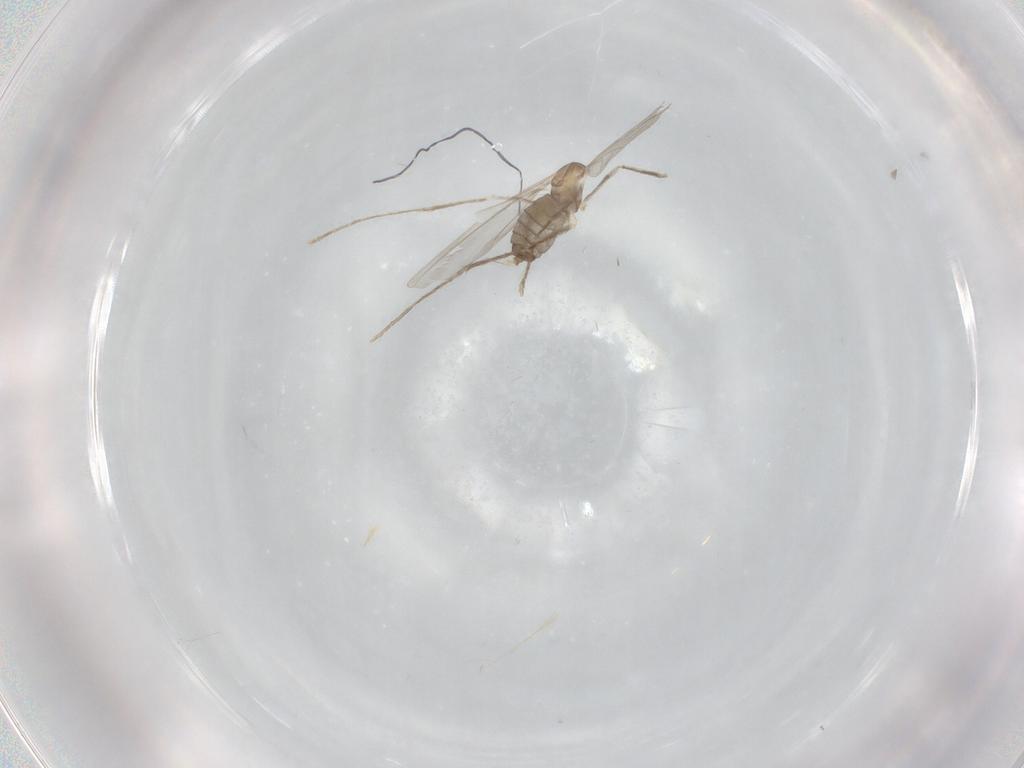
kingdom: Animalia
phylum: Arthropoda
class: Insecta
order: Diptera
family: Cecidomyiidae
